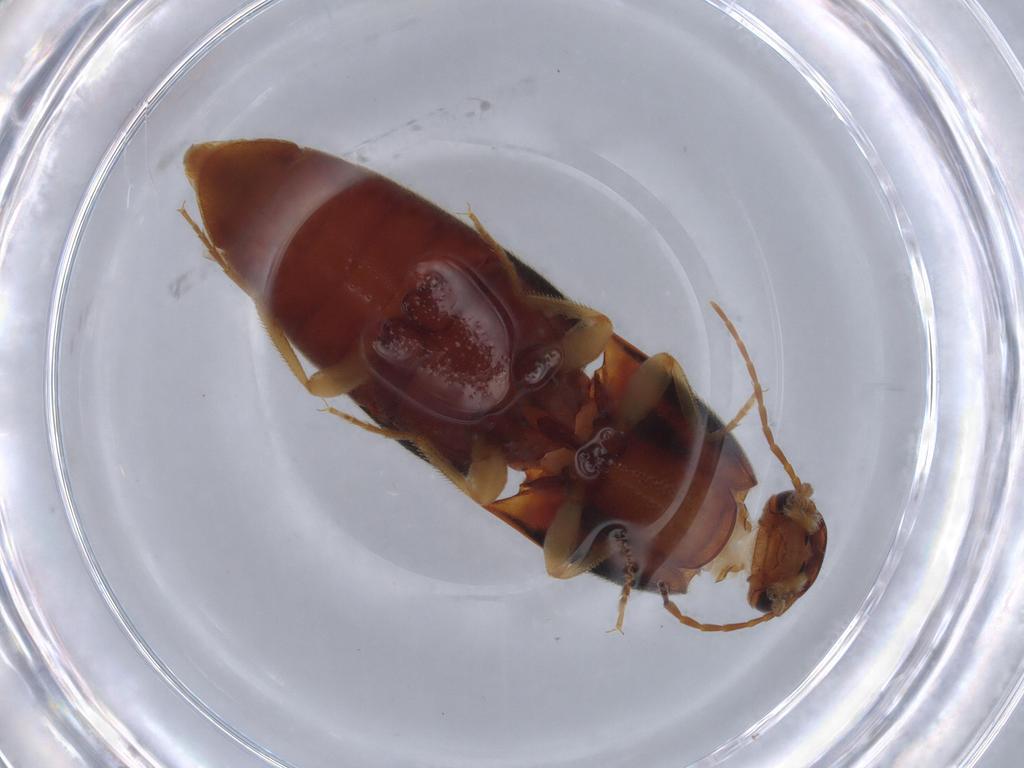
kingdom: Animalia
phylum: Arthropoda
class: Insecta
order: Coleoptera
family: Elateridae
